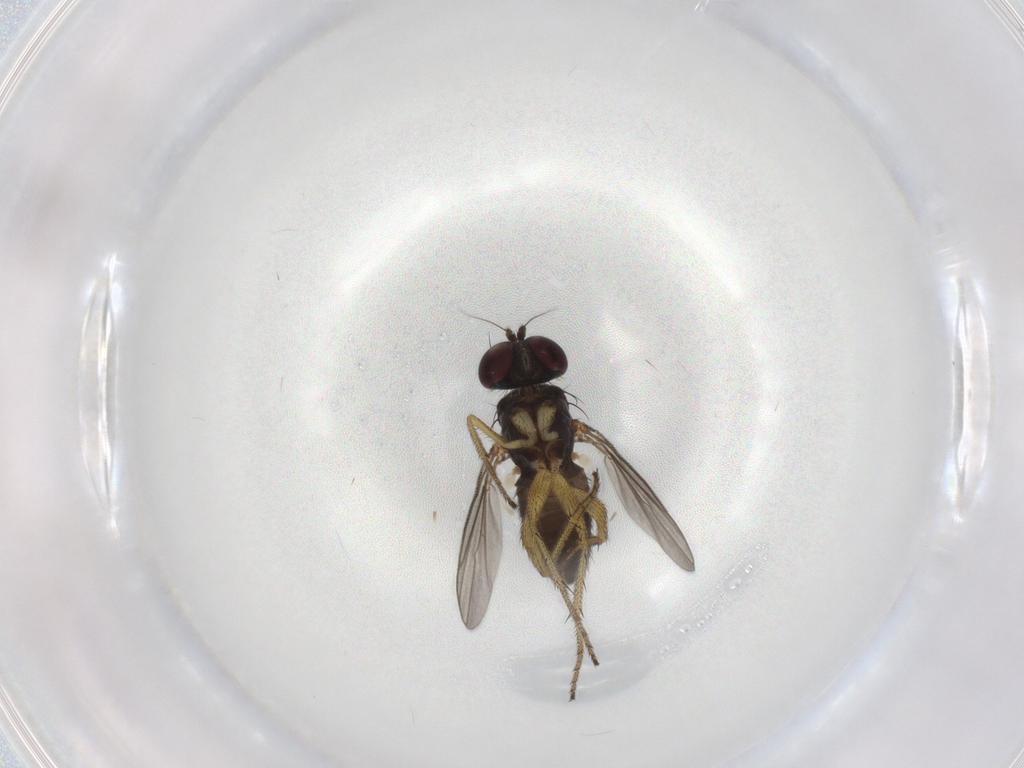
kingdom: Animalia
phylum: Arthropoda
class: Insecta
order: Diptera
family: Dolichopodidae
